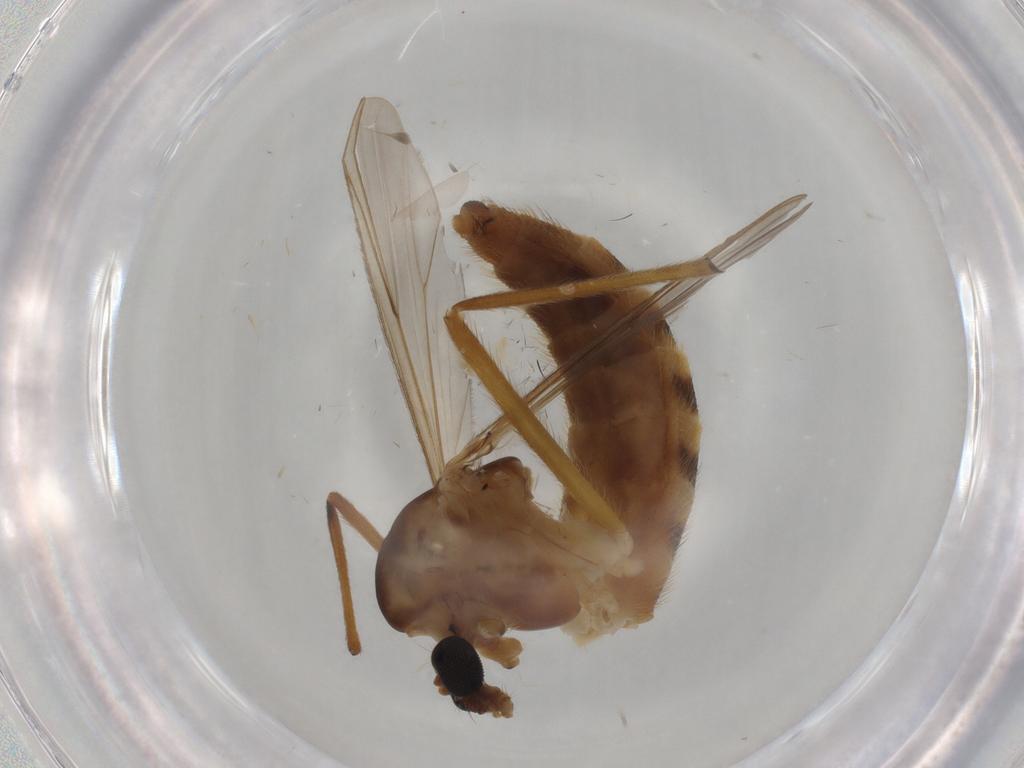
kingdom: Animalia
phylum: Arthropoda
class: Insecta
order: Diptera
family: Chironomidae
